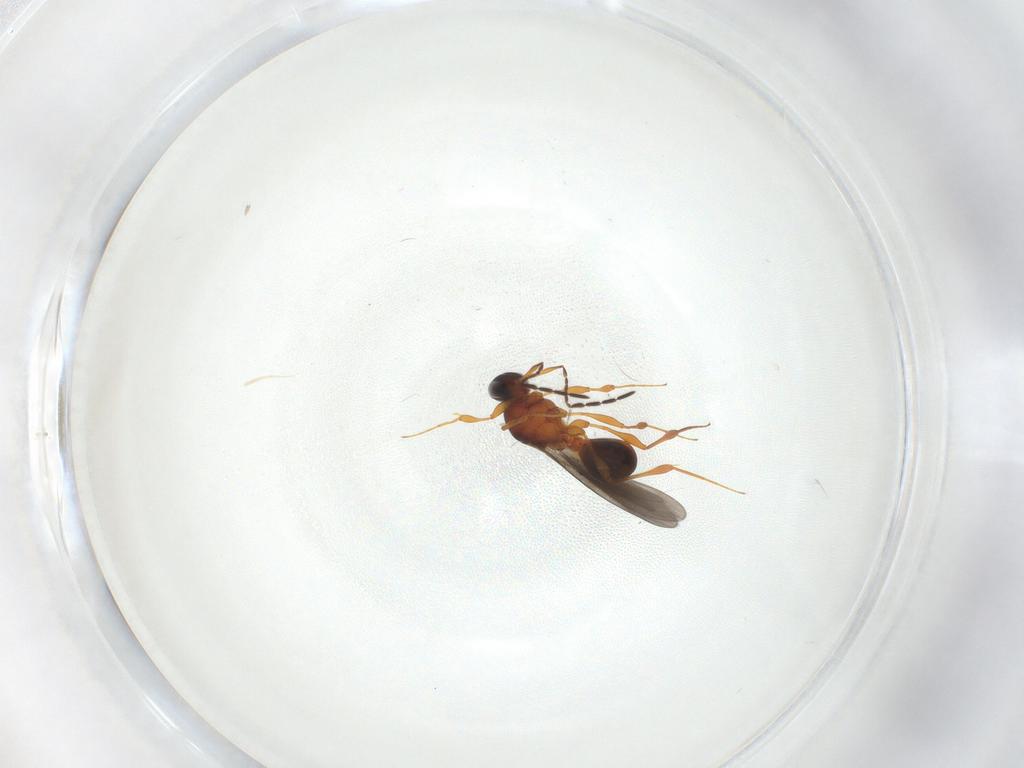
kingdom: Animalia
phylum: Arthropoda
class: Insecta
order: Hymenoptera
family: Platygastridae
